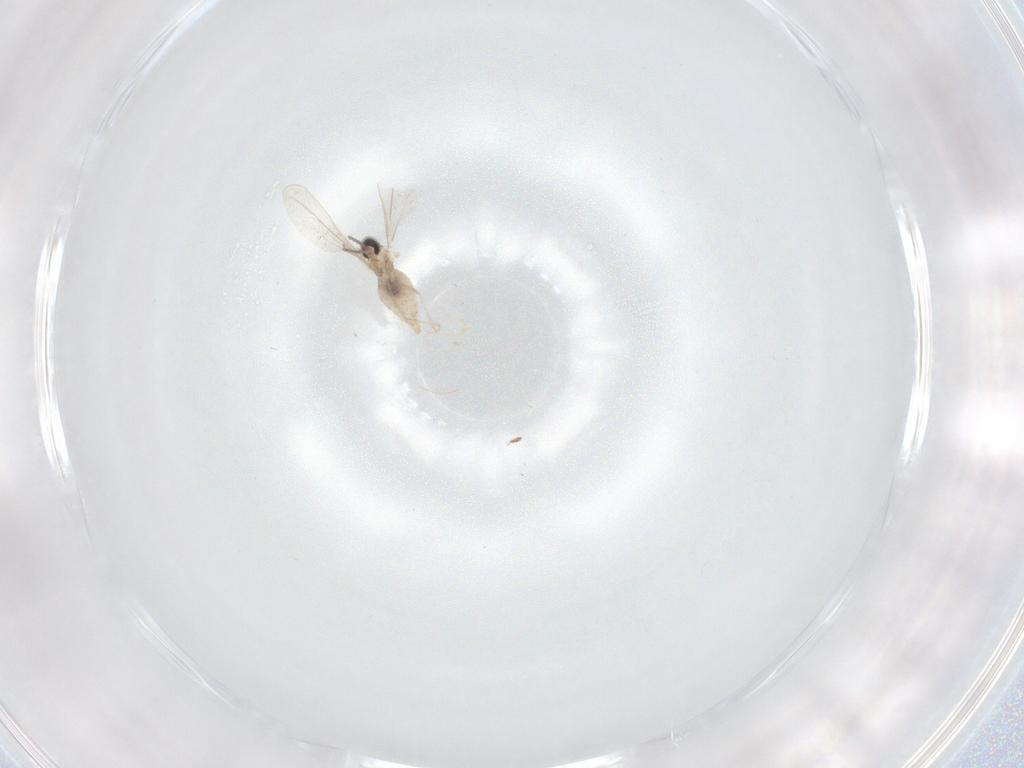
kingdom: Animalia
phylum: Arthropoda
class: Insecta
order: Diptera
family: Cecidomyiidae
